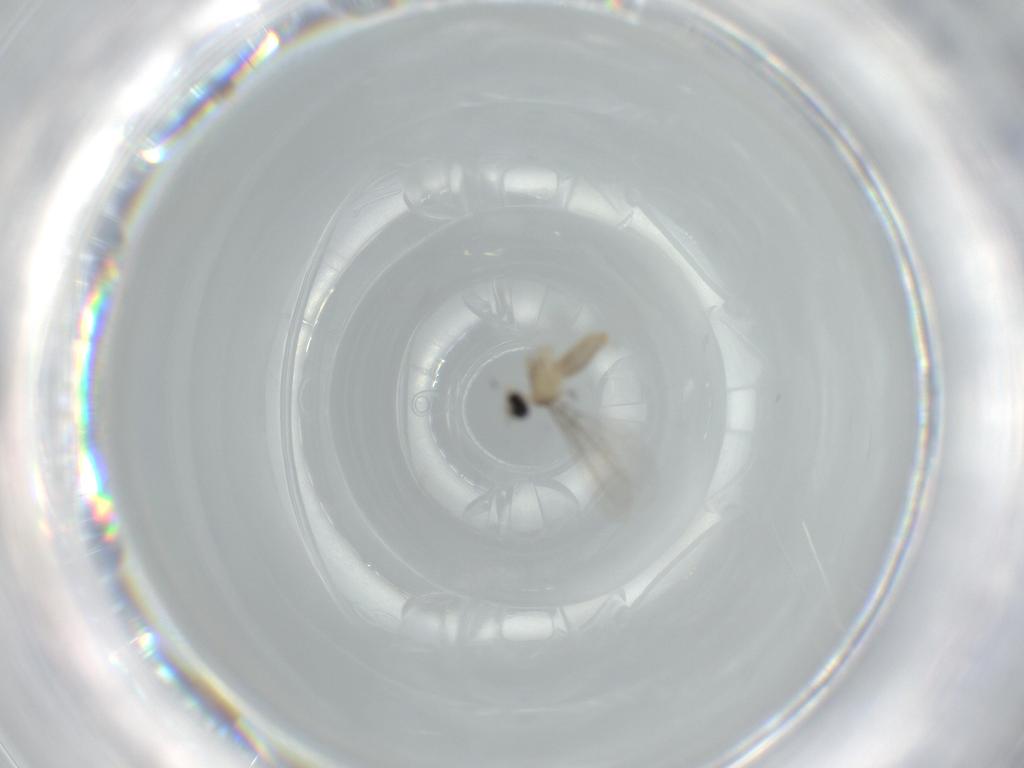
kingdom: Animalia
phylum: Arthropoda
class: Insecta
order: Diptera
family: Cecidomyiidae
